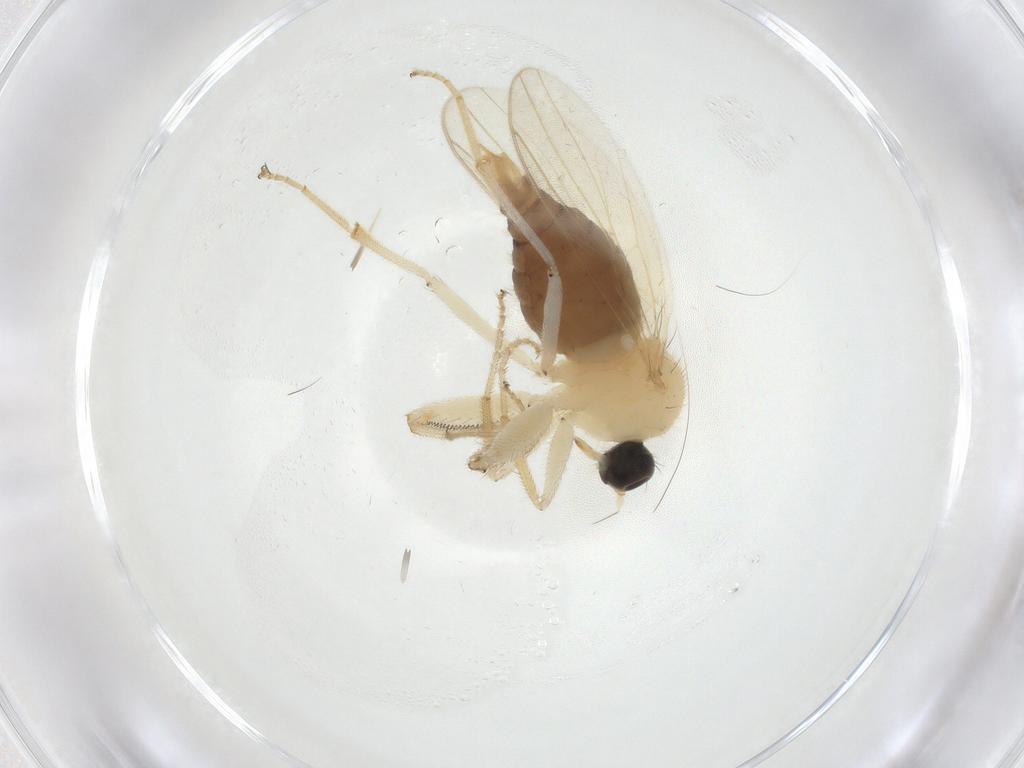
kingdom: Animalia
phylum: Arthropoda
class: Insecta
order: Diptera
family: Hybotidae
